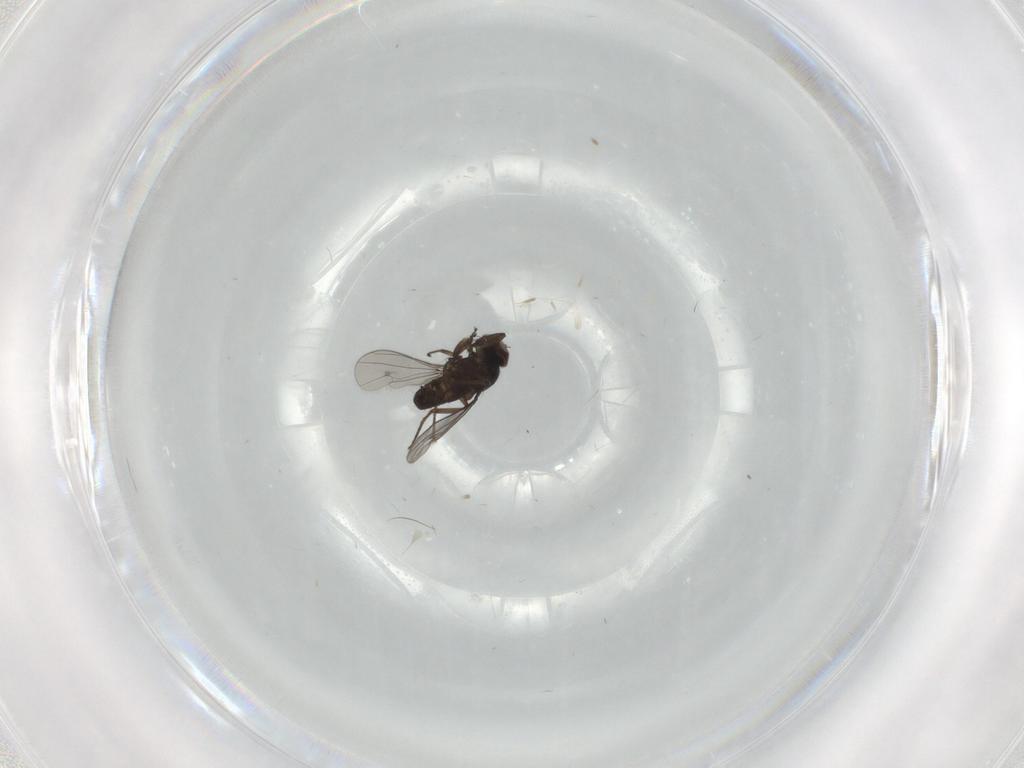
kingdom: Animalia
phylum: Arthropoda
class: Insecta
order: Diptera
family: Dolichopodidae
